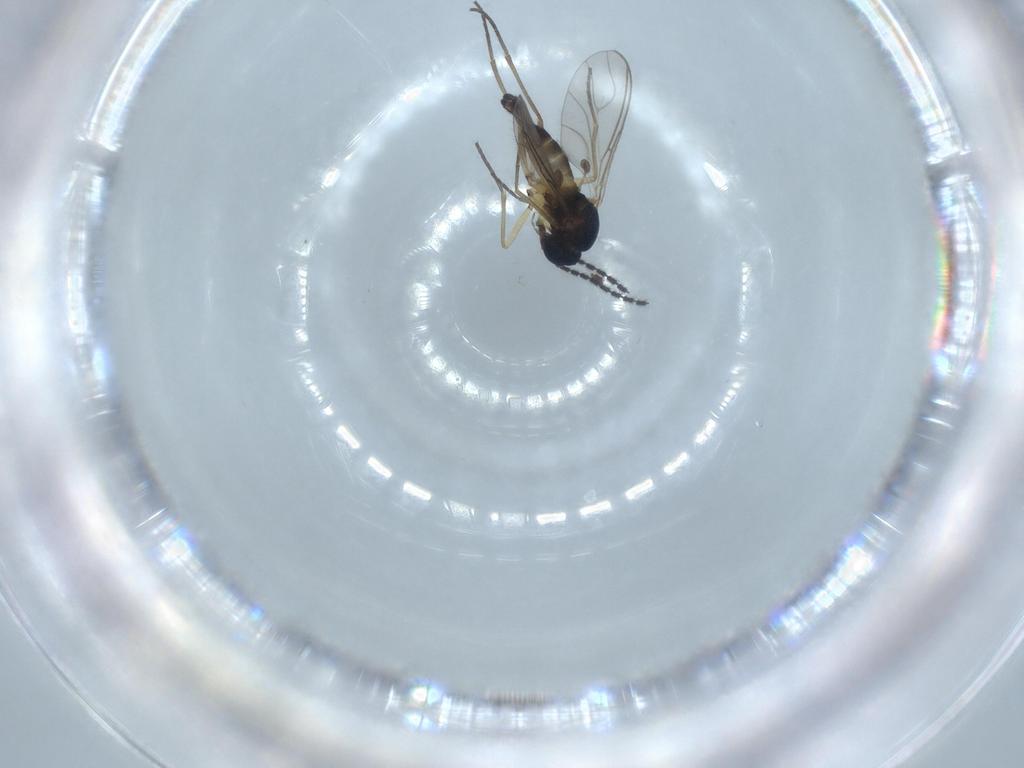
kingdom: Animalia
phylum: Arthropoda
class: Insecta
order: Diptera
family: Sciaridae
